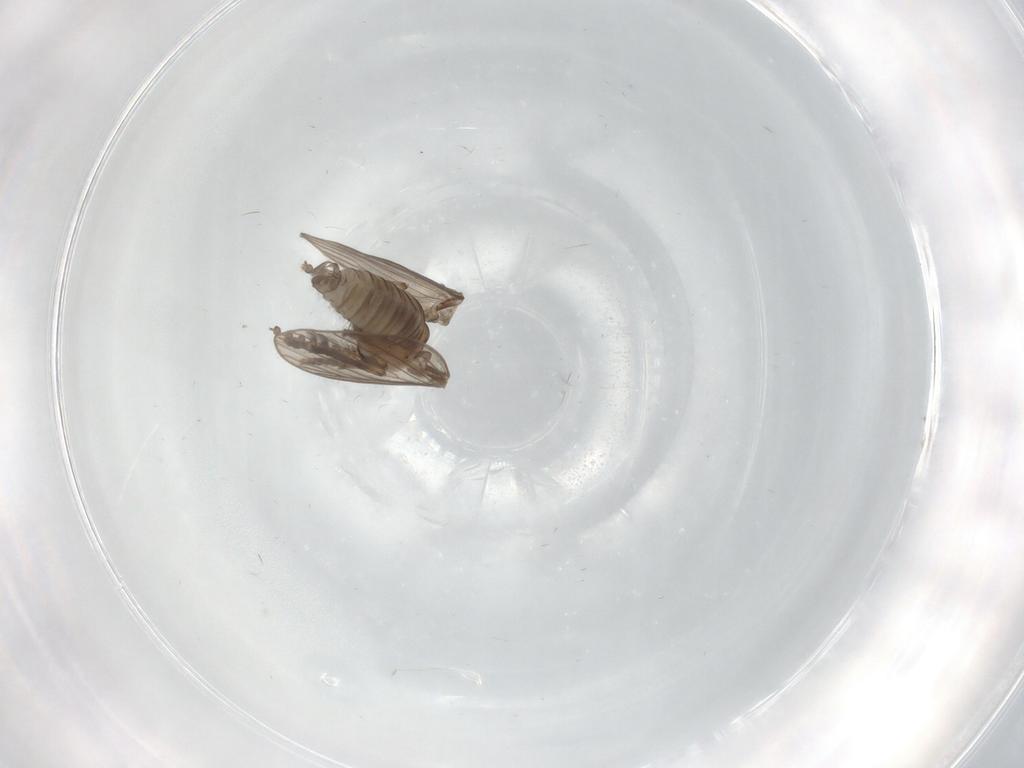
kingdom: Animalia
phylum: Arthropoda
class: Insecta
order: Diptera
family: Psychodidae
